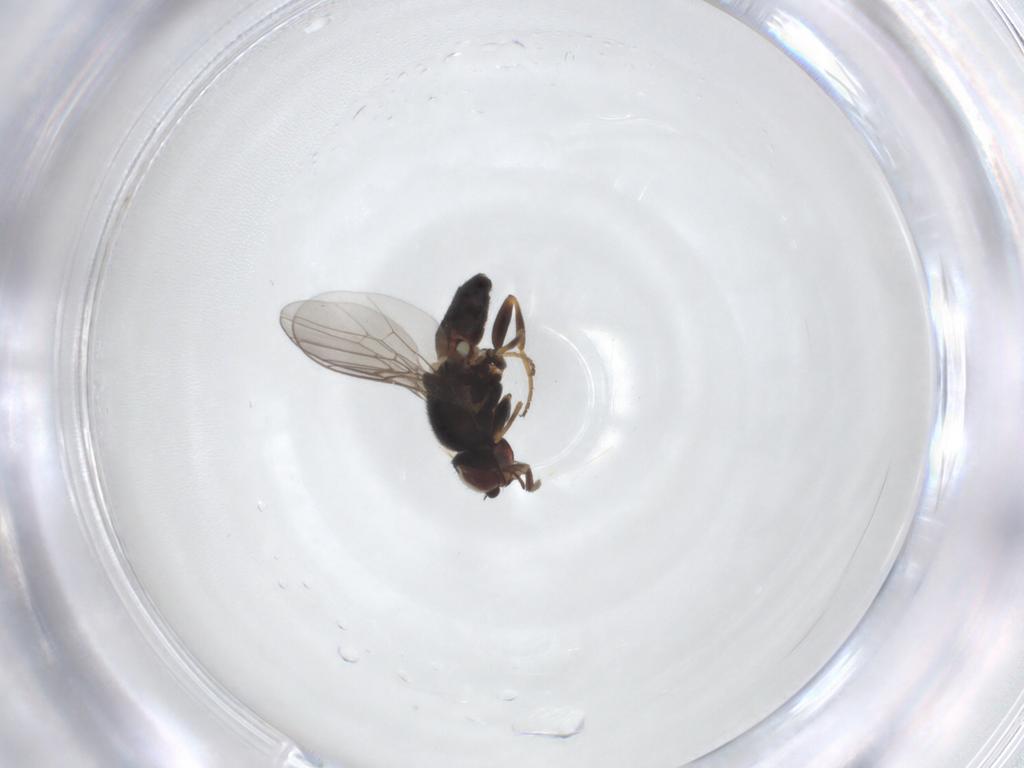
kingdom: Animalia
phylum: Arthropoda
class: Insecta
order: Diptera
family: Chloropidae
